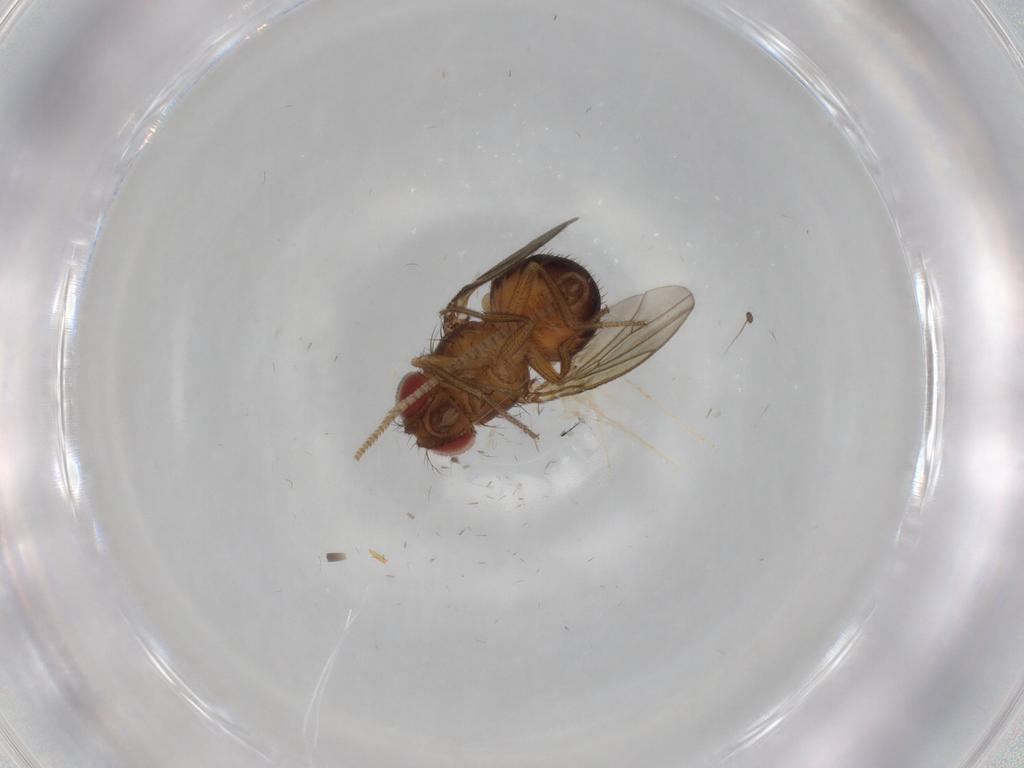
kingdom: Animalia
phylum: Arthropoda
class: Insecta
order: Diptera
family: Drosophilidae
